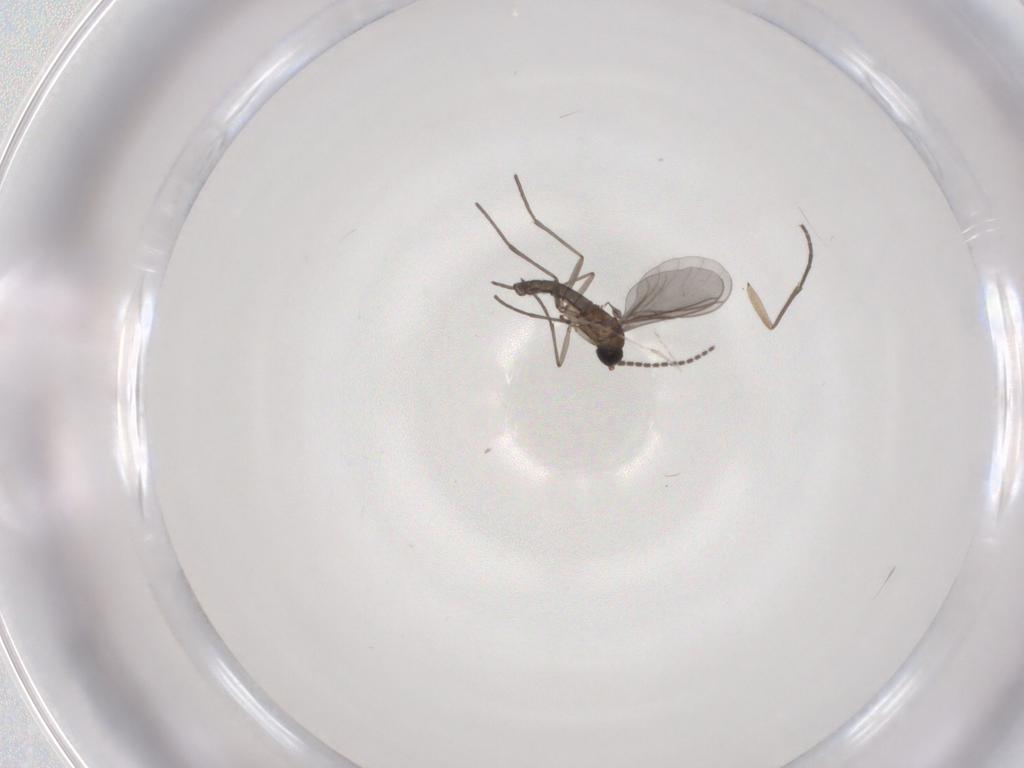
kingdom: Animalia
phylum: Arthropoda
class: Insecta
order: Diptera
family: Sciaridae
